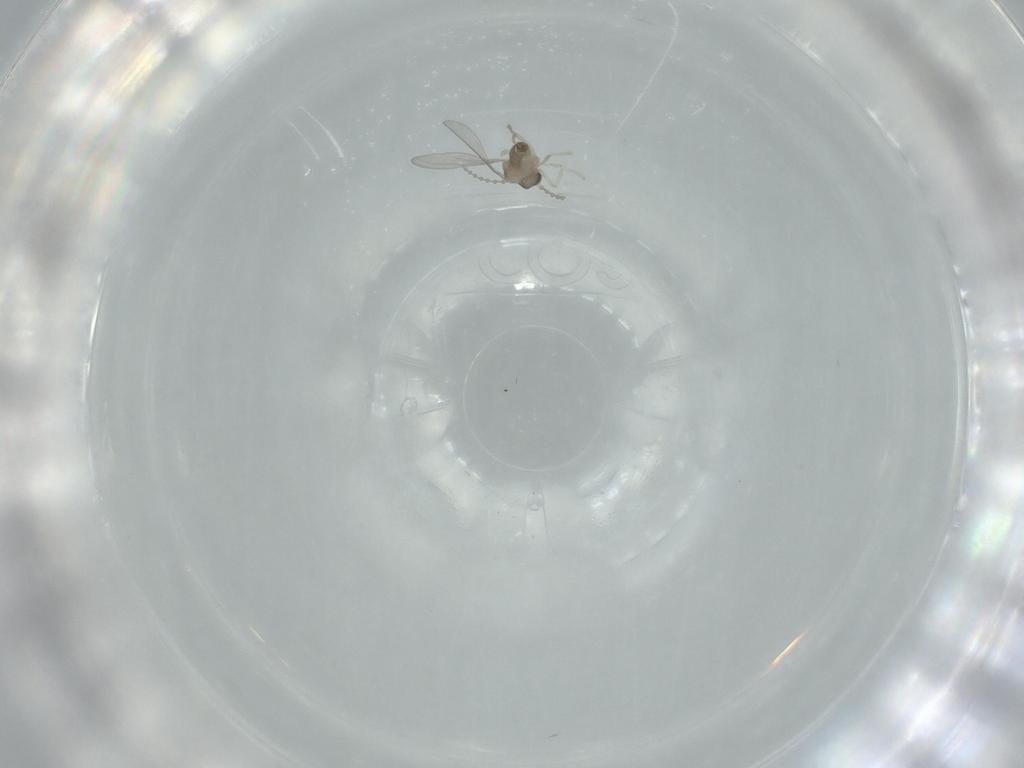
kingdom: Animalia
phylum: Arthropoda
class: Insecta
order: Diptera
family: Cecidomyiidae
